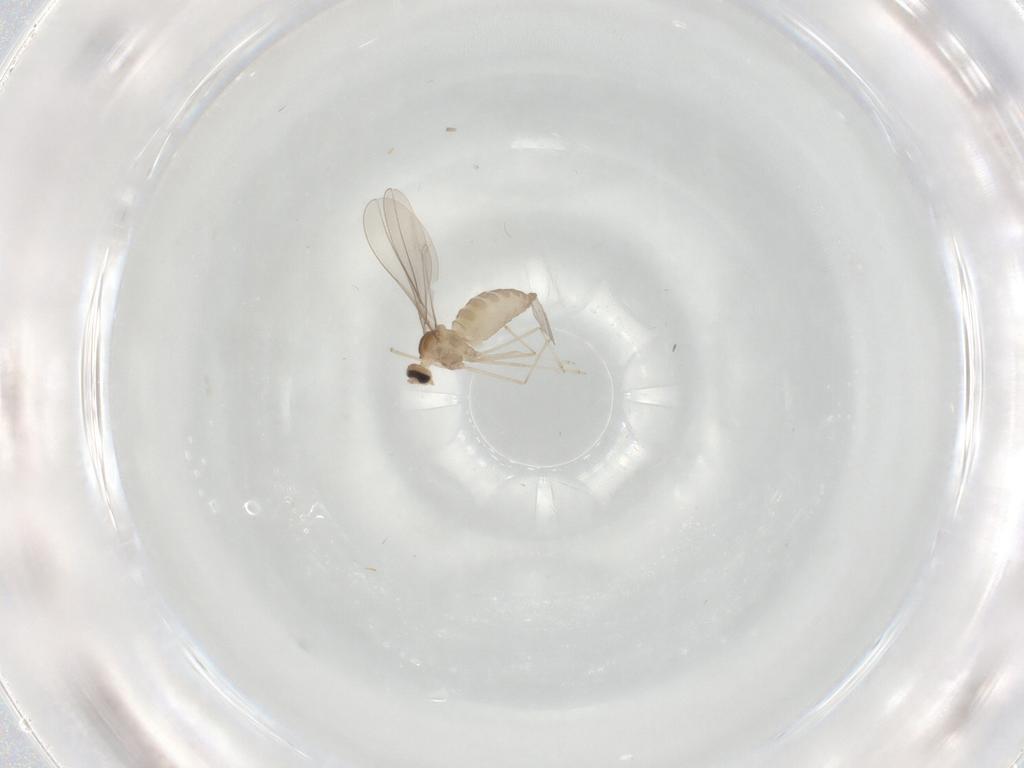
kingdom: Animalia
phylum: Arthropoda
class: Insecta
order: Diptera
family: Cecidomyiidae
